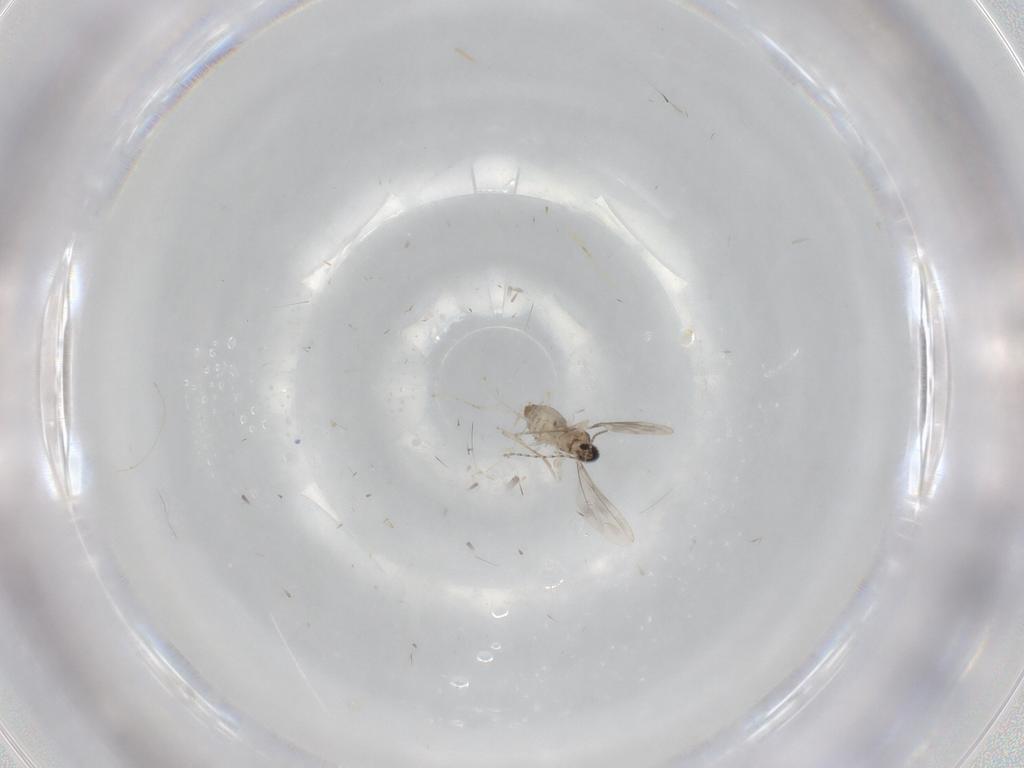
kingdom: Animalia
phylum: Arthropoda
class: Insecta
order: Diptera
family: Cecidomyiidae
